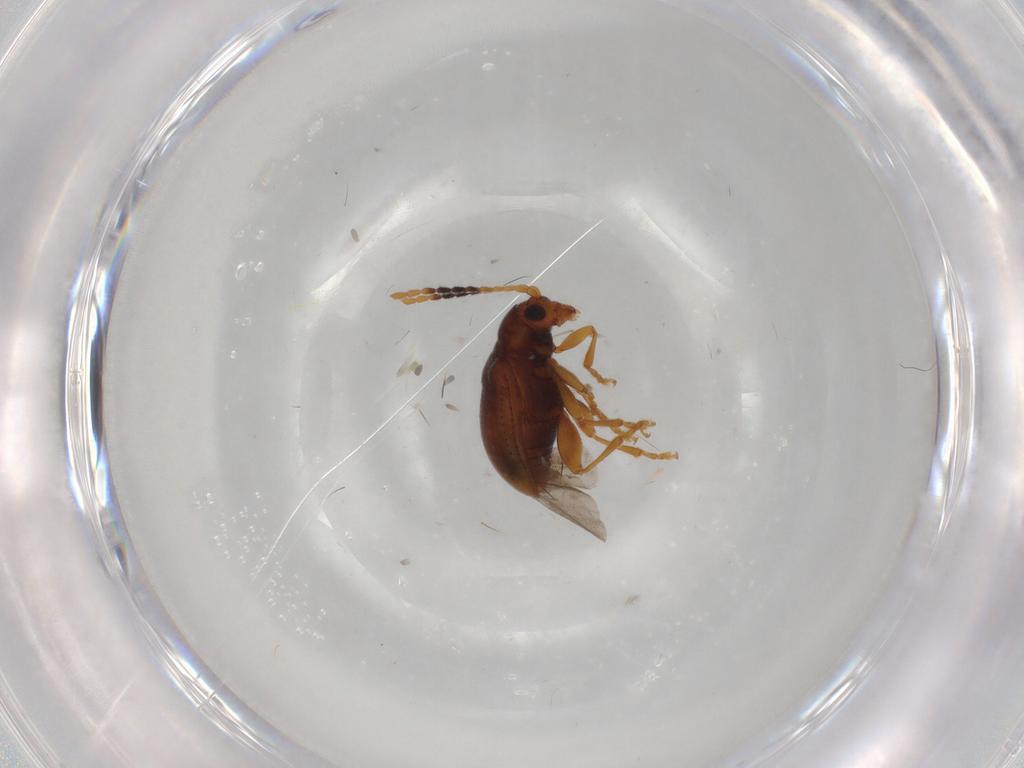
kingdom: Animalia
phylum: Arthropoda
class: Insecta
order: Coleoptera
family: Chrysomelidae
